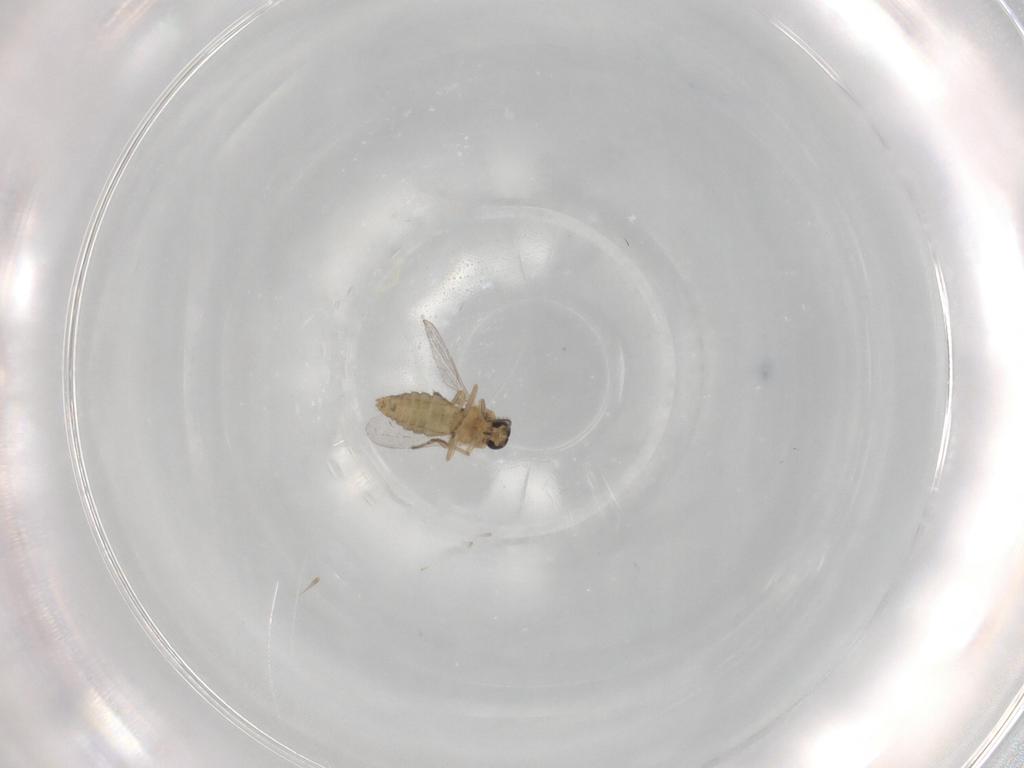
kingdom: Animalia
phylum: Arthropoda
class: Insecta
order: Diptera
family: Ceratopogonidae
